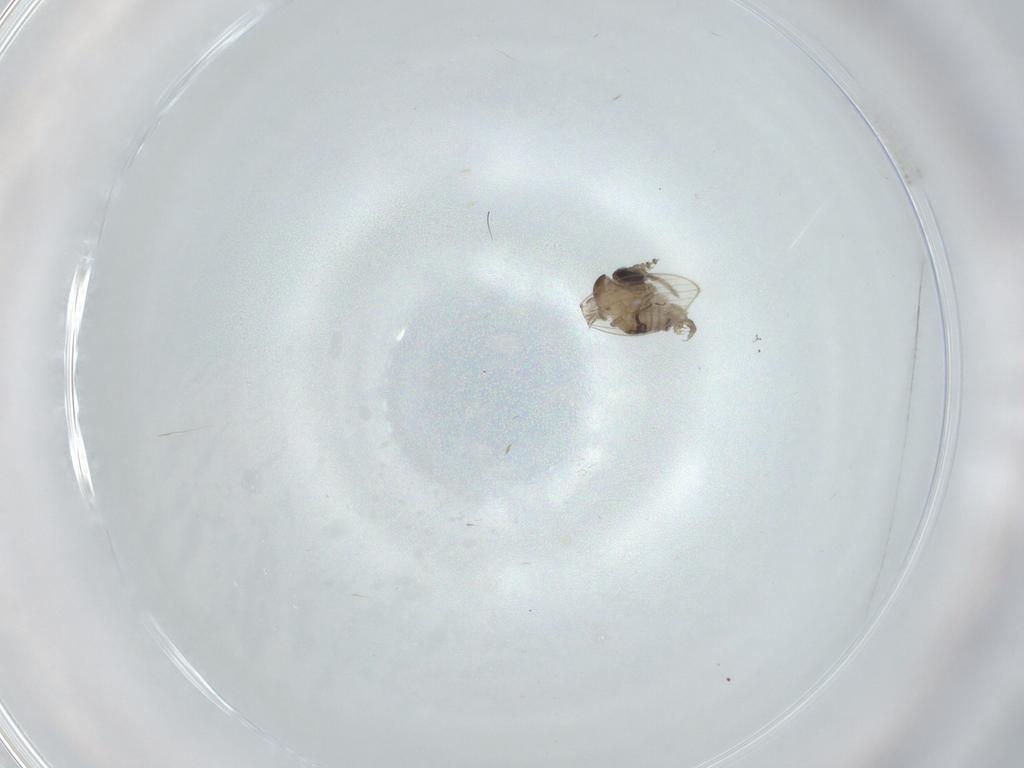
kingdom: Animalia
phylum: Arthropoda
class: Insecta
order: Diptera
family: Psychodidae
